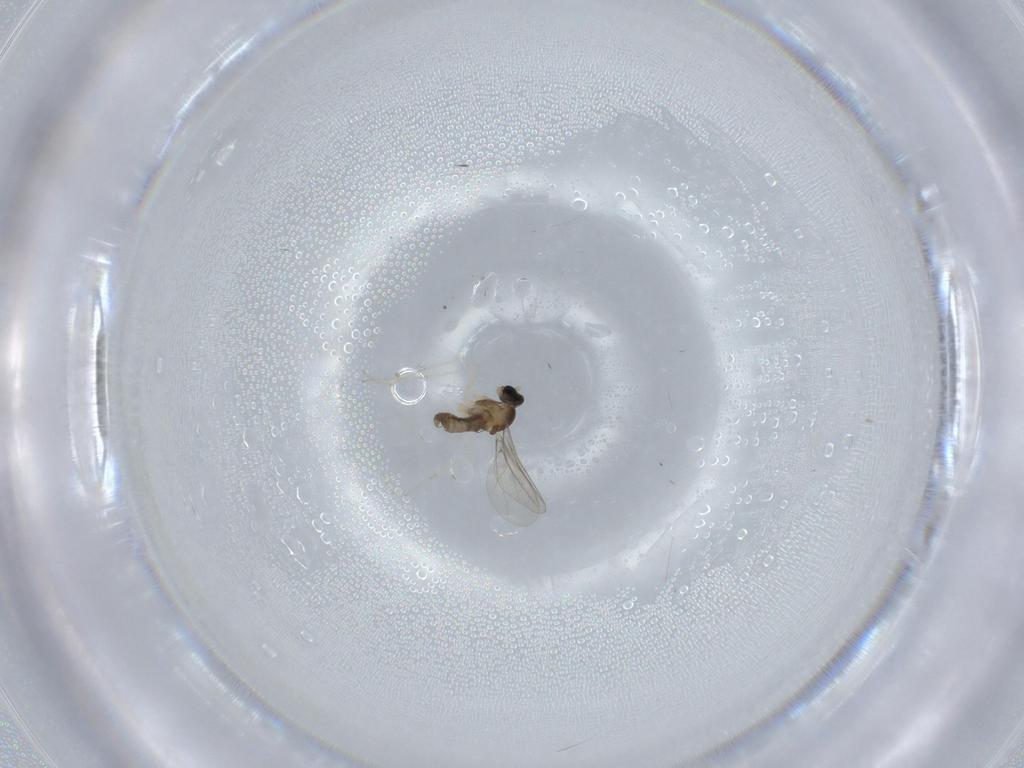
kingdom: Animalia
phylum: Arthropoda
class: Insecta
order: Diptera
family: Cecidomyiidae
